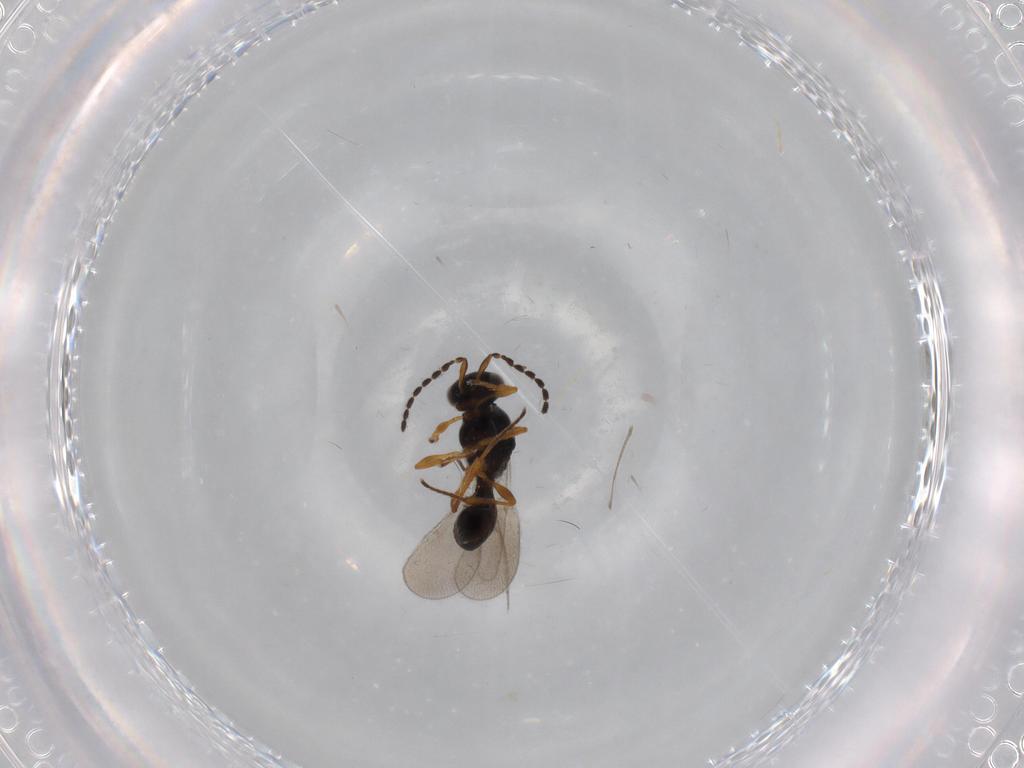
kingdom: Animalia
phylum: Arthropoda
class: Insecta
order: Hymenoptera
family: Platygastridae
